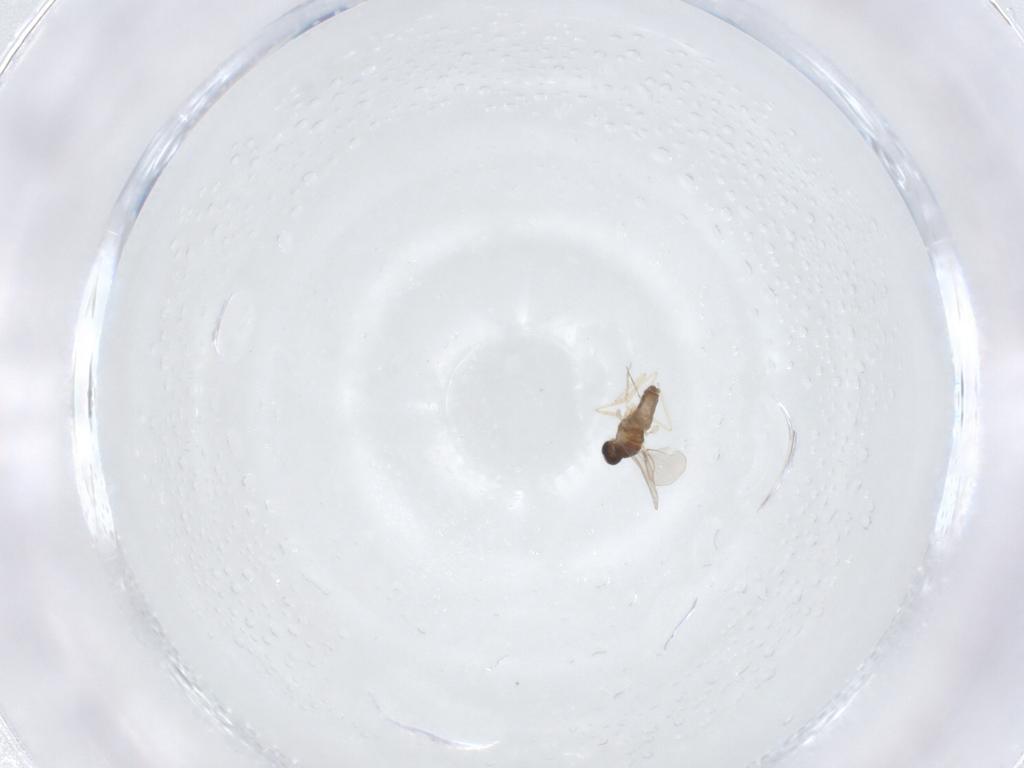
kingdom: Animalia
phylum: Arthropoda
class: Insecta
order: Diptera
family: Cecidomyiidae
